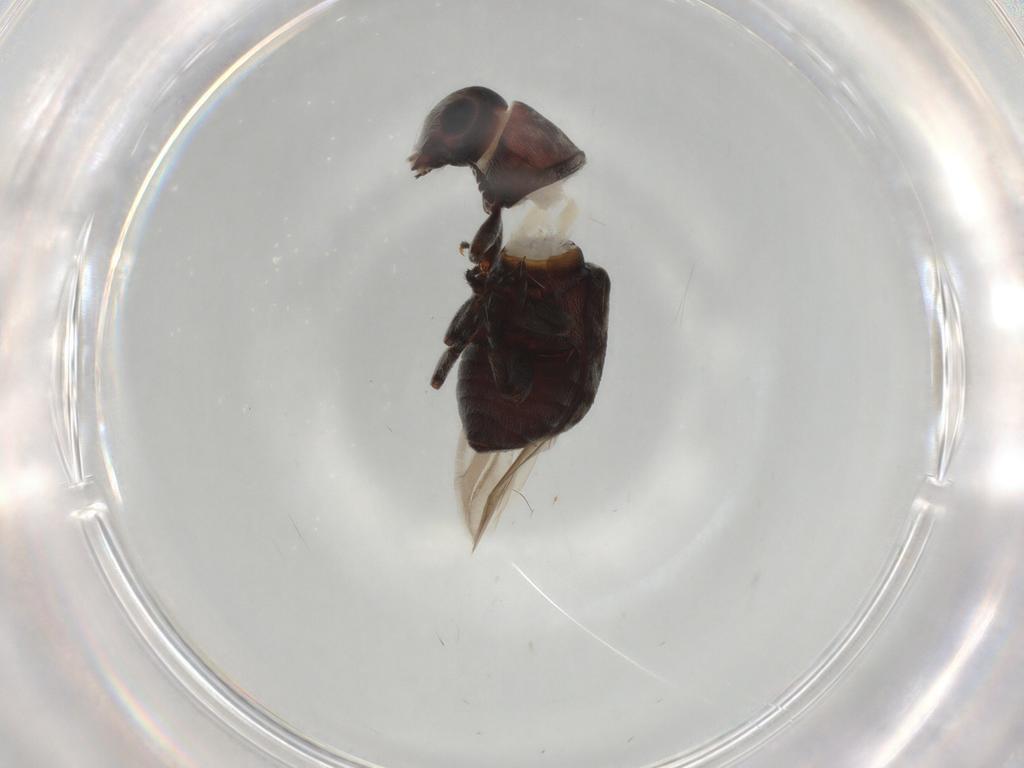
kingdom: Animalia
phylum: Arthropoda
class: Insecta
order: Coleoptera
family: Anthribidae
